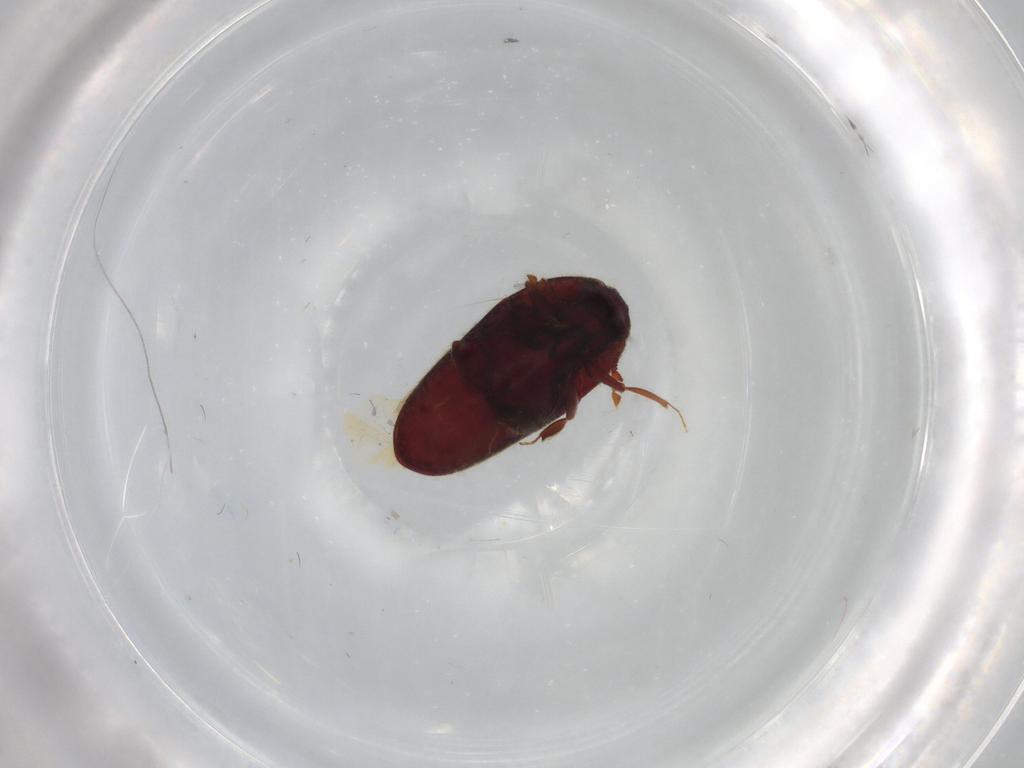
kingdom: Animalia
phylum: Arthropoda
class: Insecta
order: Coleoptera
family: Throscidae
